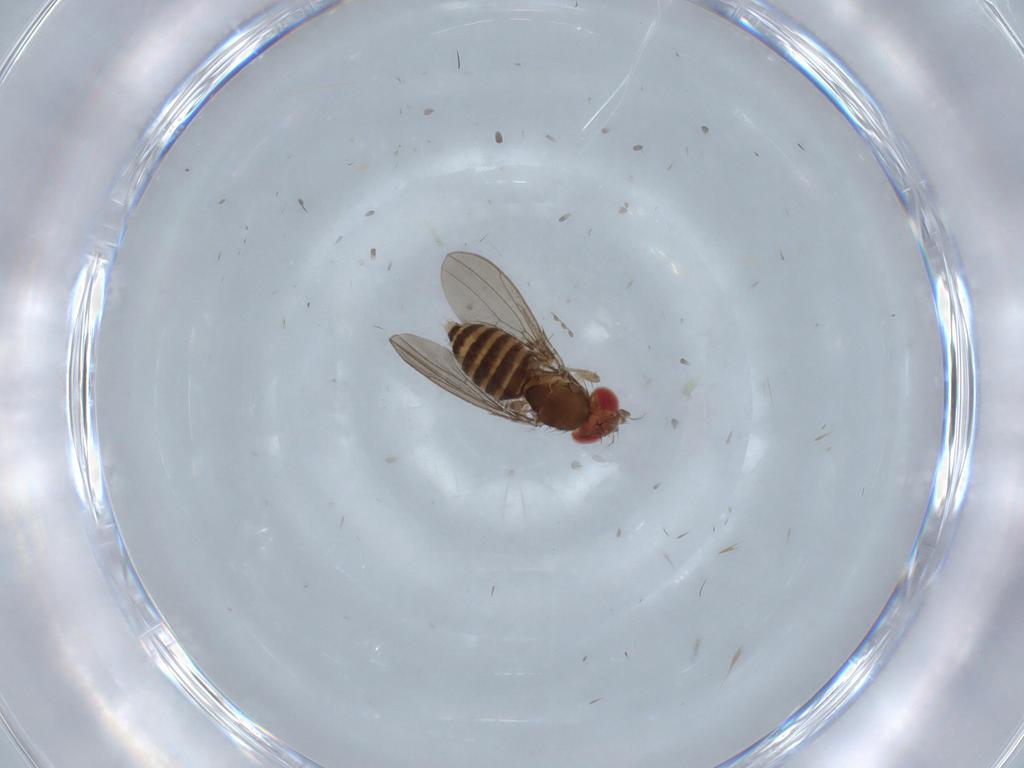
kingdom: Animalia
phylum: Arthropoda
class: Insecta
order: Diptera
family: Drosophilidae
